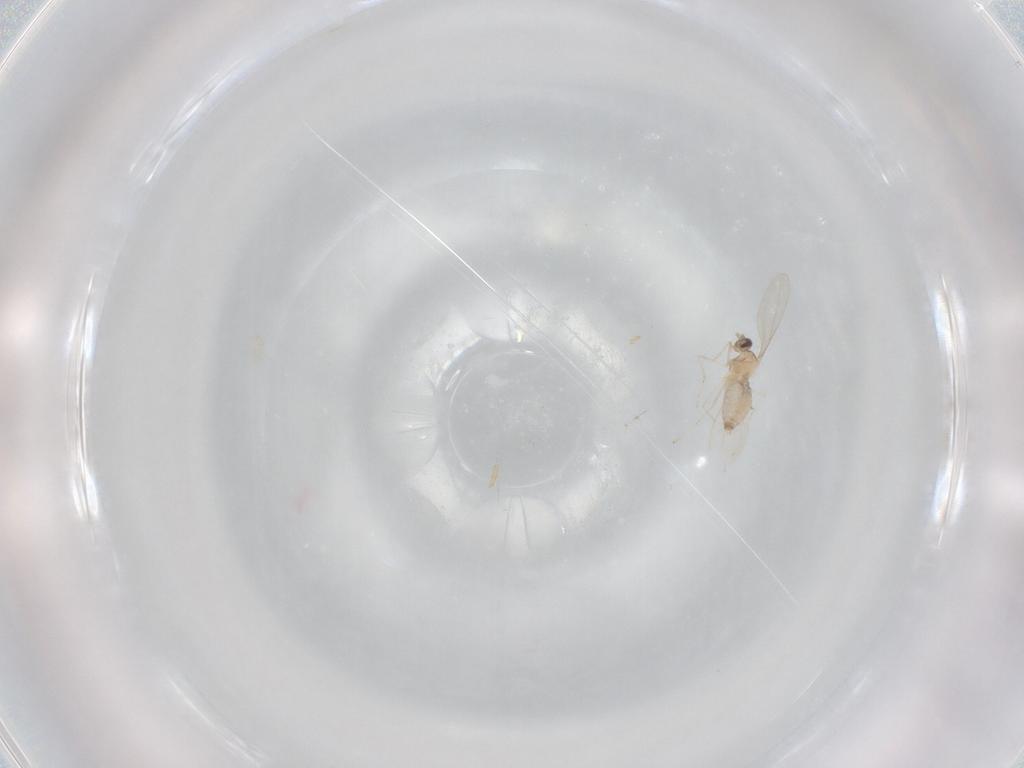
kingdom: Animalia
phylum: Arthropoda
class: Insecta
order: Diptera
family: Cecidomyiidae
